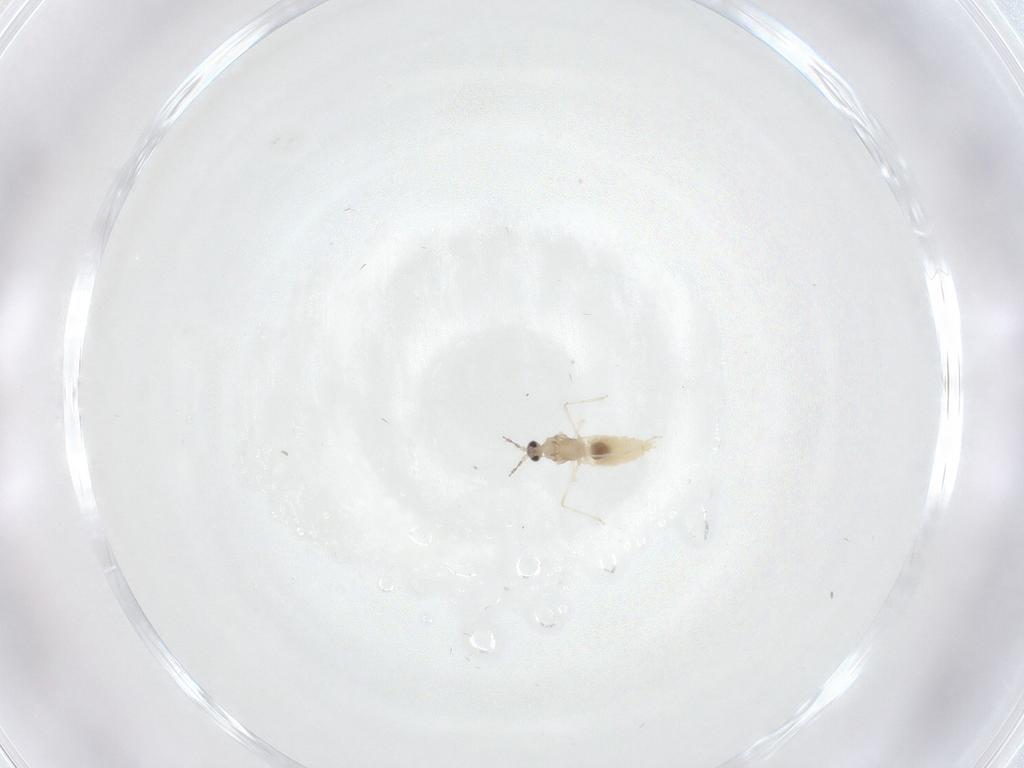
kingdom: Animalia
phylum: Arthropoda
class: Insecta
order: Diptera
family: Cecidomyiidae
